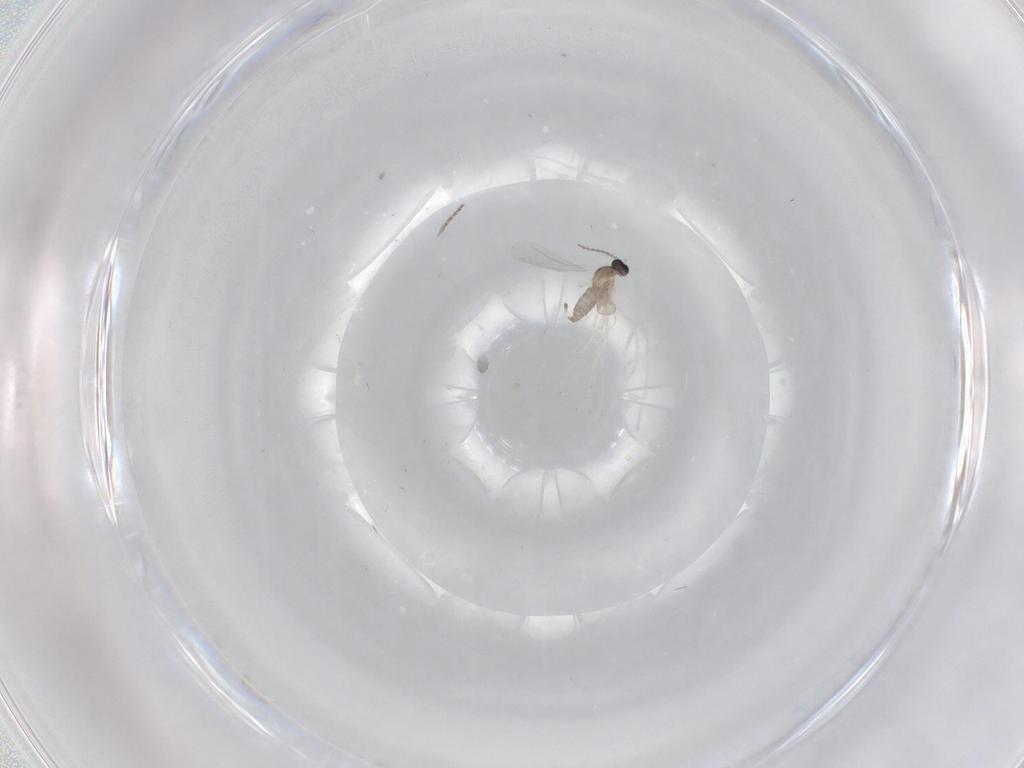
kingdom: Animalia
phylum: Arthropoda
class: Insecta
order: Diptera
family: Cecidomyiidae
